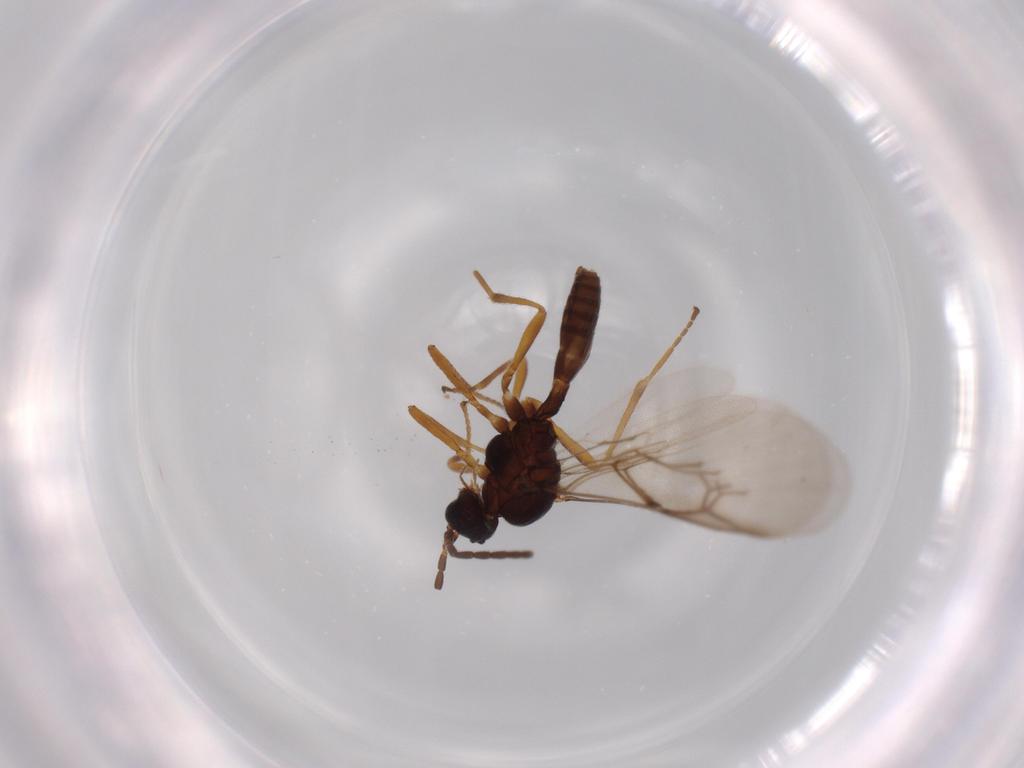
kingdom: Animalia
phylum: Arthropoda
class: Insecta
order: Hymenoptera
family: Braconidae
